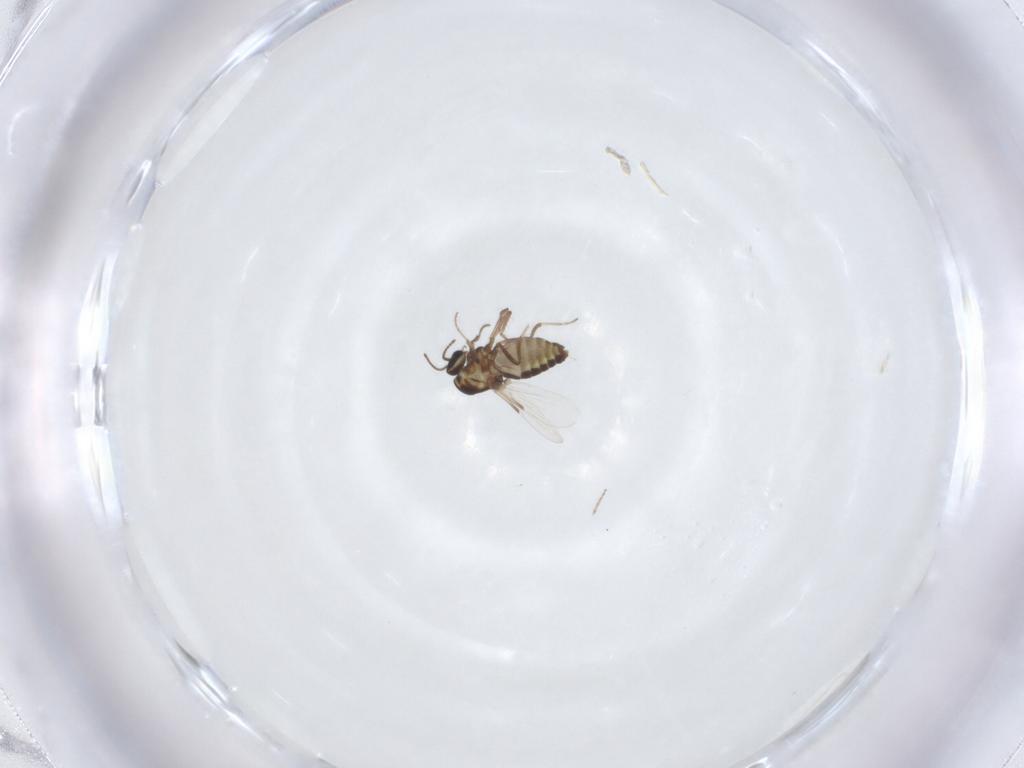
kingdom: Animalia
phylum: Arthropoda
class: Insecta
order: Diptera
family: Ceratopogonidae
